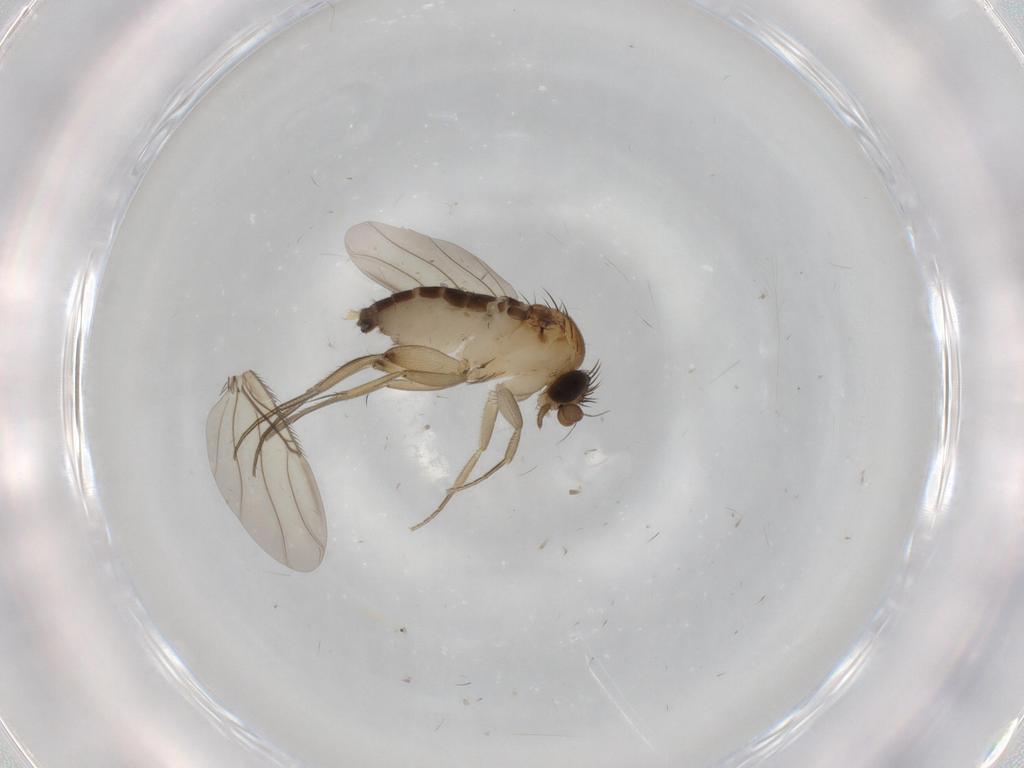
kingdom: Animalia
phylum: Arthropoda
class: Insecta
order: Diptera
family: Phoridae
